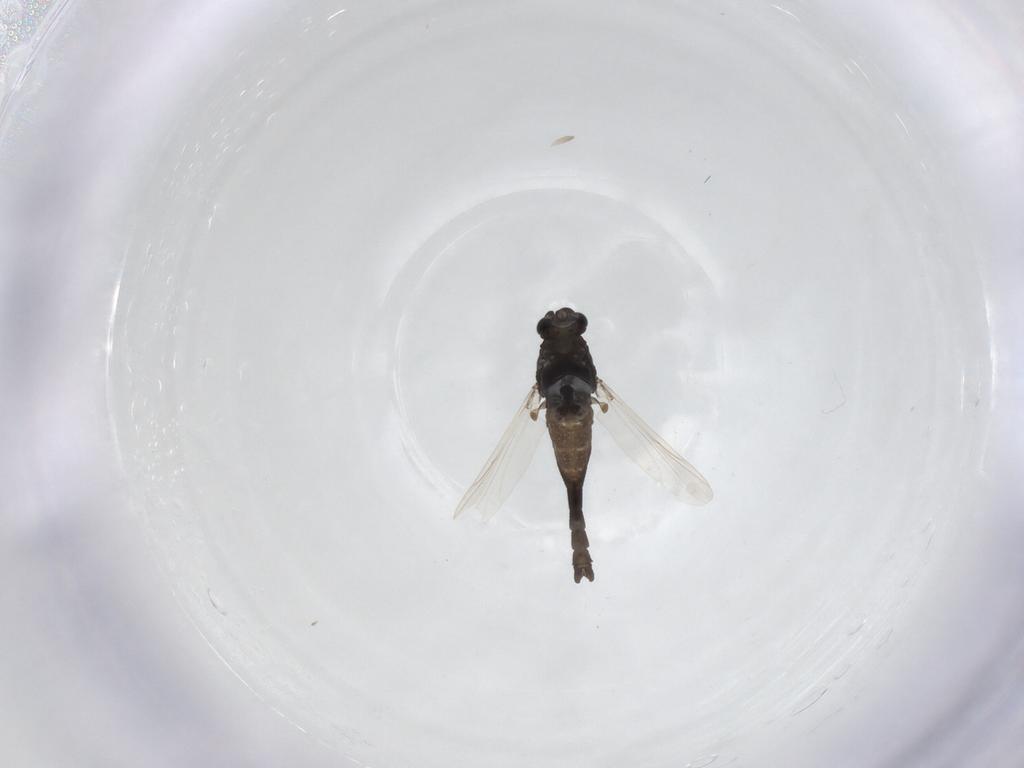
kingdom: Animalia
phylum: Arthropoda
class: Insecta
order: Diptera
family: Chironomidae
